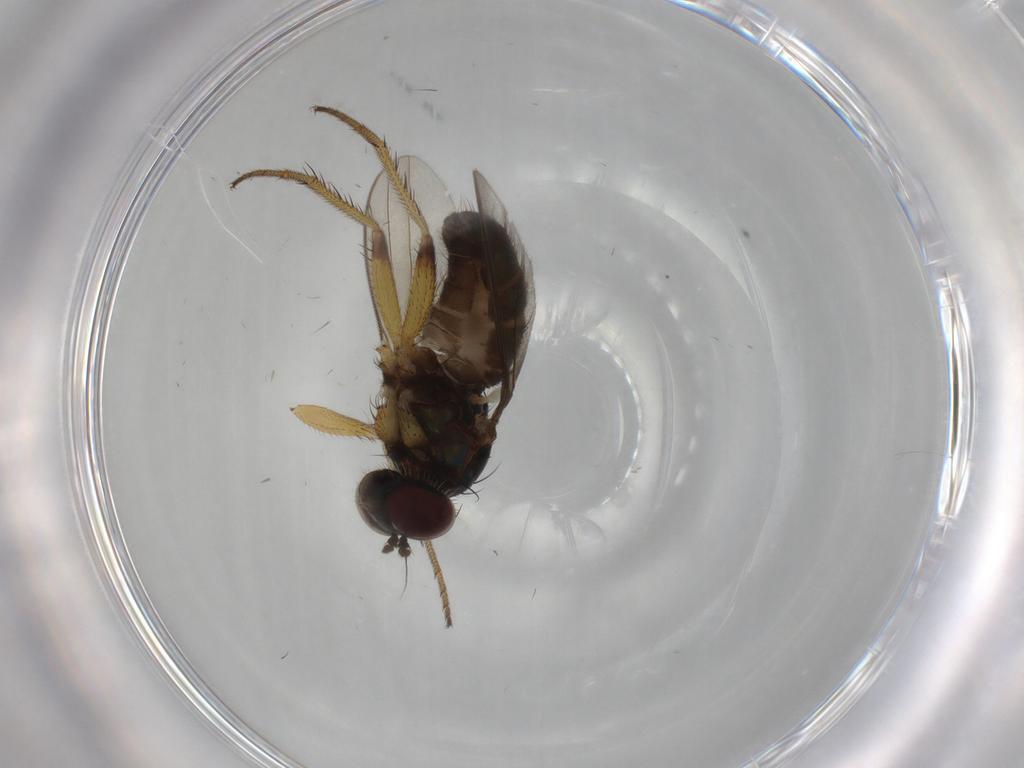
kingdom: Animalia
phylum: Arthropoda
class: Insecta
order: Diptera
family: Dolichopodidae
